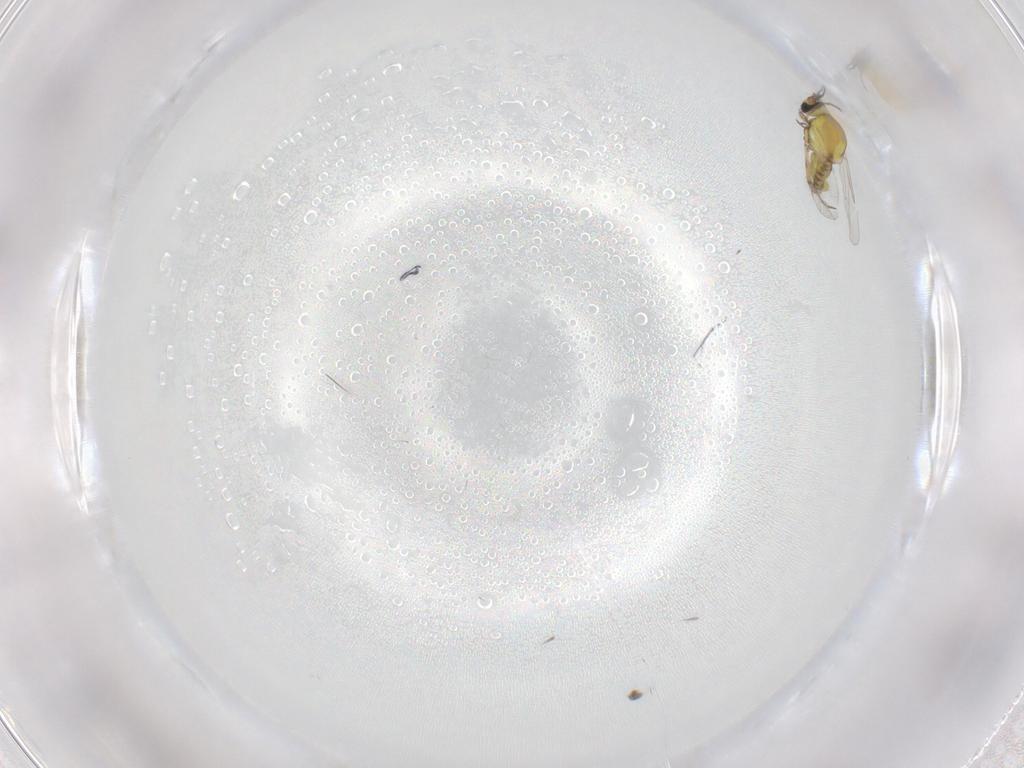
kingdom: Animalia
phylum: Arthropoda
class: Insecta
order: Diptera
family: Ceratopogonidae
